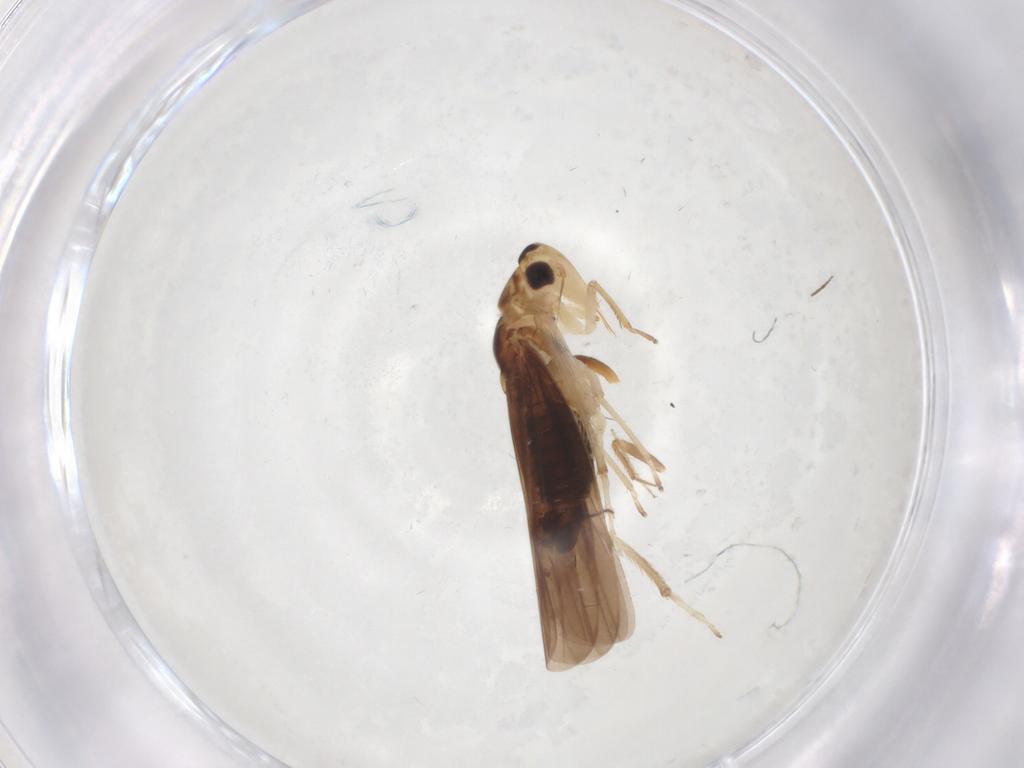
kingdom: Animalia
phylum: Arthropoda
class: Insecta
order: Hemiptera
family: Cicadellidae
